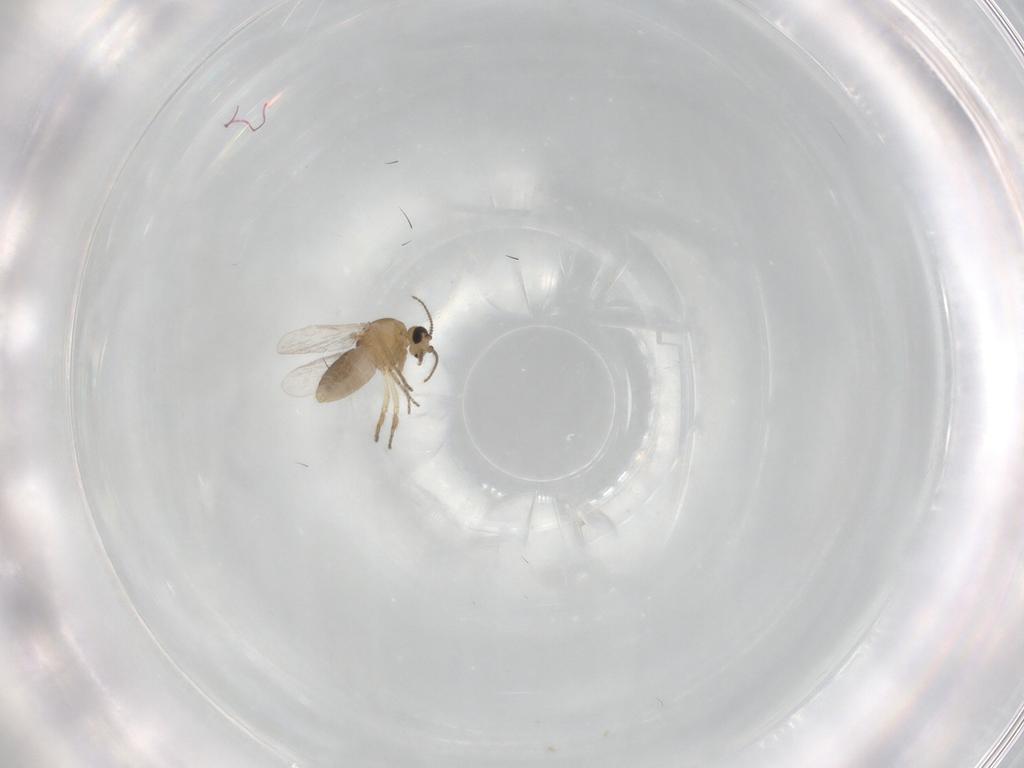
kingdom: Animalia
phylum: Arthropoda
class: Insecta
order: Diptera
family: Ceratopogonidae
